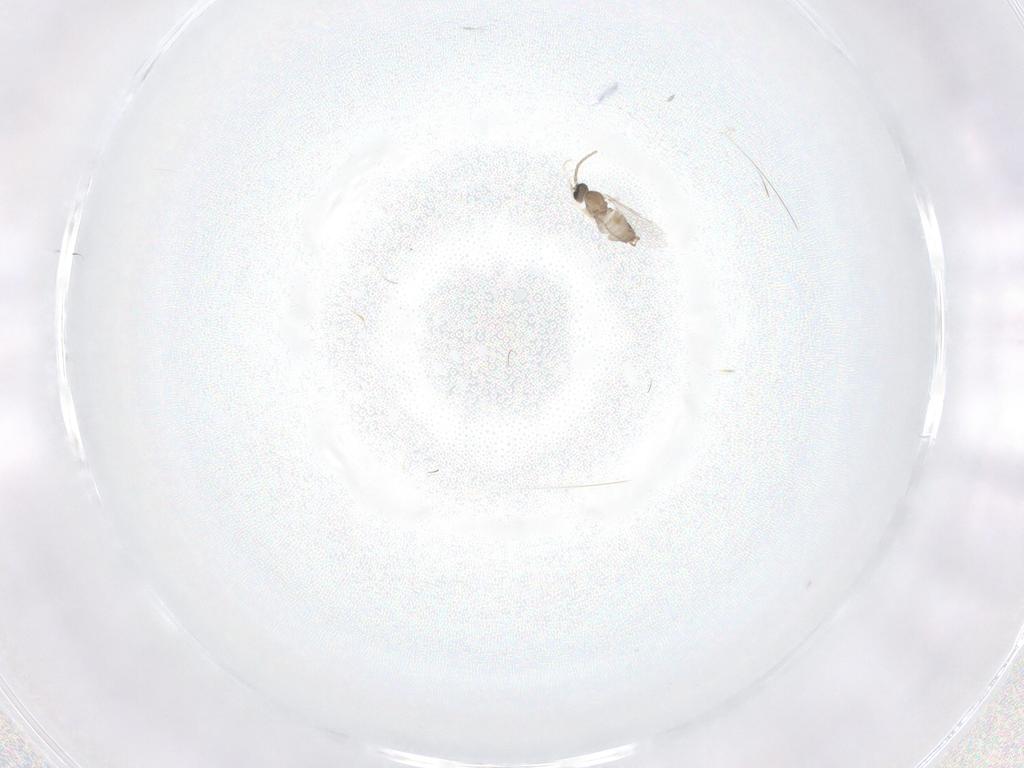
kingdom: Animalia
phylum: Arthropoda
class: Insecta
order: Diptera
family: Cecidomyiidae
